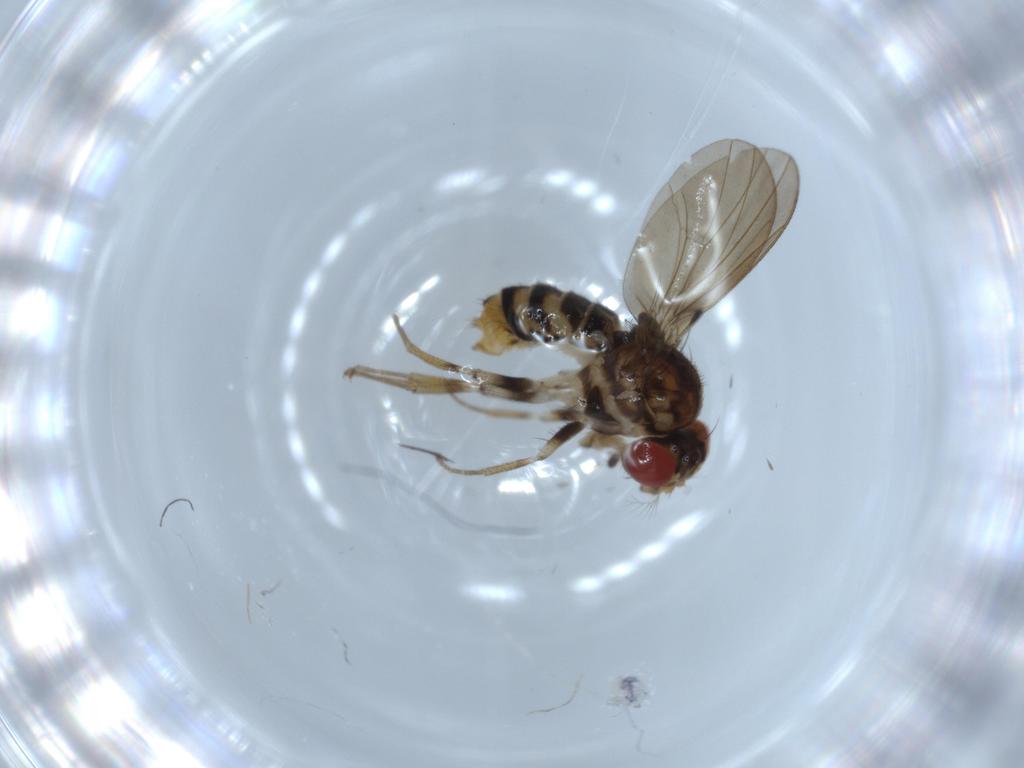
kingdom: Animalia
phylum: Arthropoda
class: Insecta
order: Diptera
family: Drosophilidae
